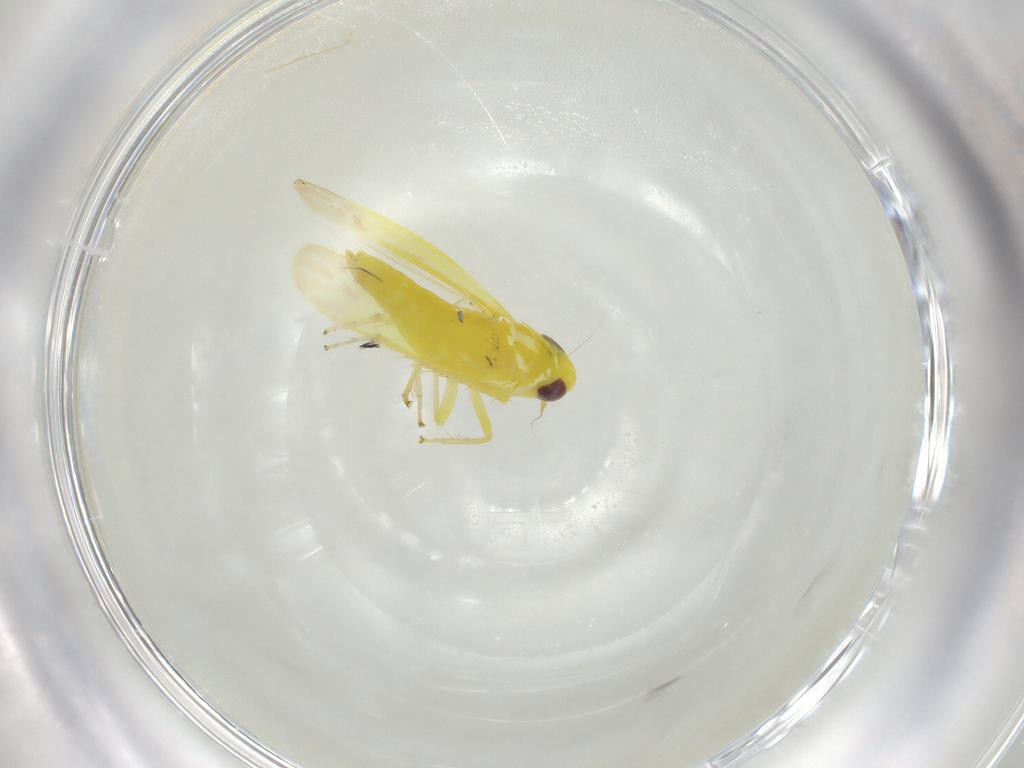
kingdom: Animalia
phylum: Arthropoda
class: Insecta
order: Hemiptera
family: Cicadellidae
